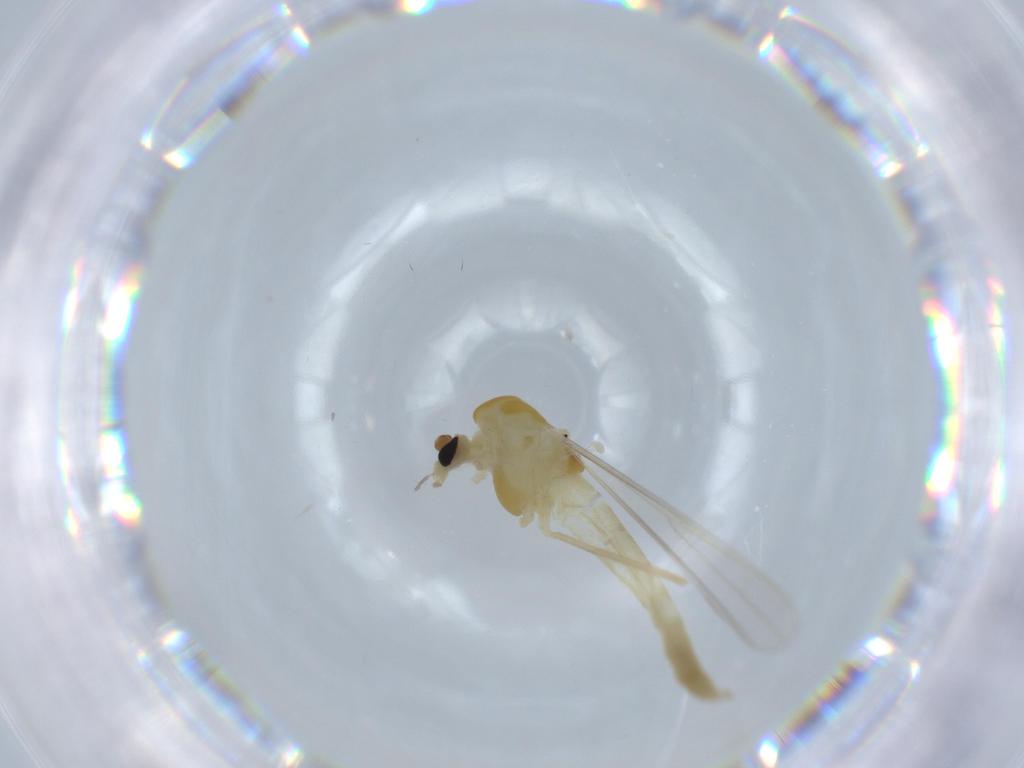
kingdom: Animalia
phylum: Arthropoda
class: Insecta
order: Diptera
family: Chironomidae
